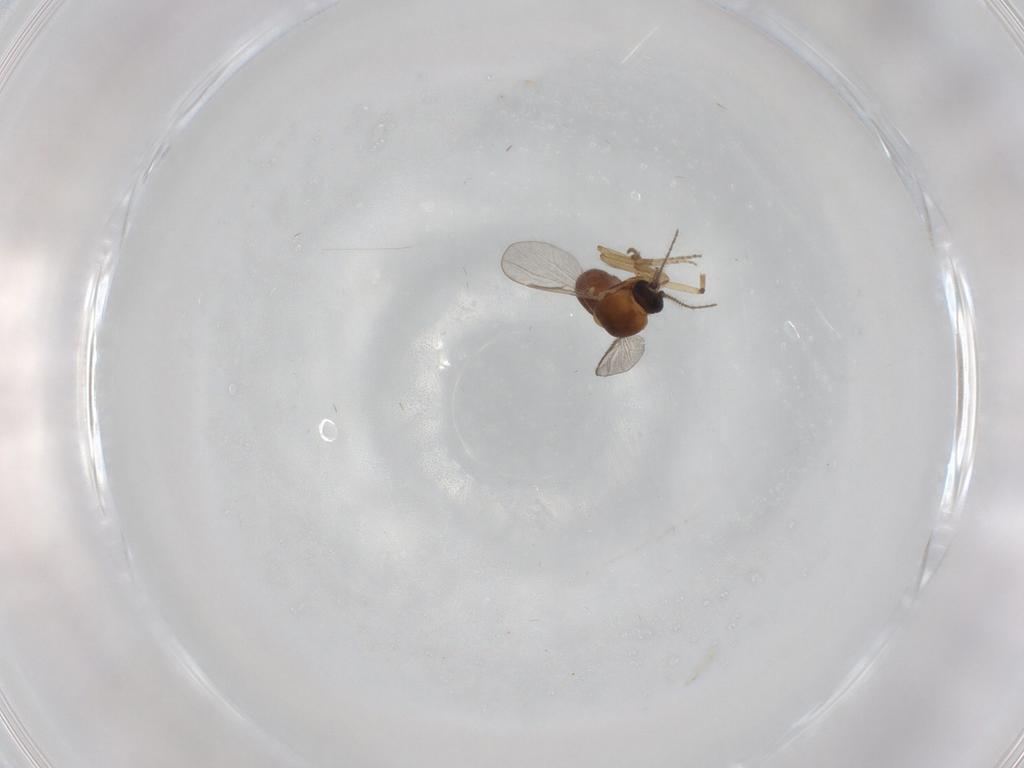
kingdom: Animalia
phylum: Arthropoda
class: Insecta
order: Diptera
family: Ceratopogonidae
